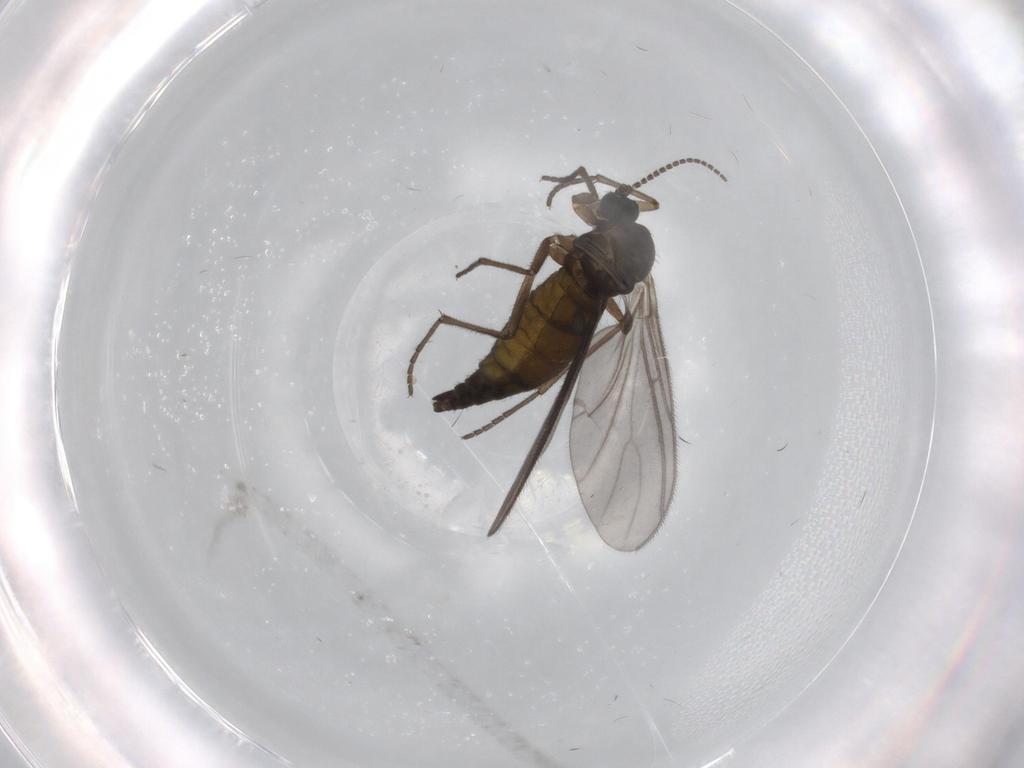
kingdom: Animalia
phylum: Arthropoda
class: Insecta
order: Diptera
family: Sciaridae
